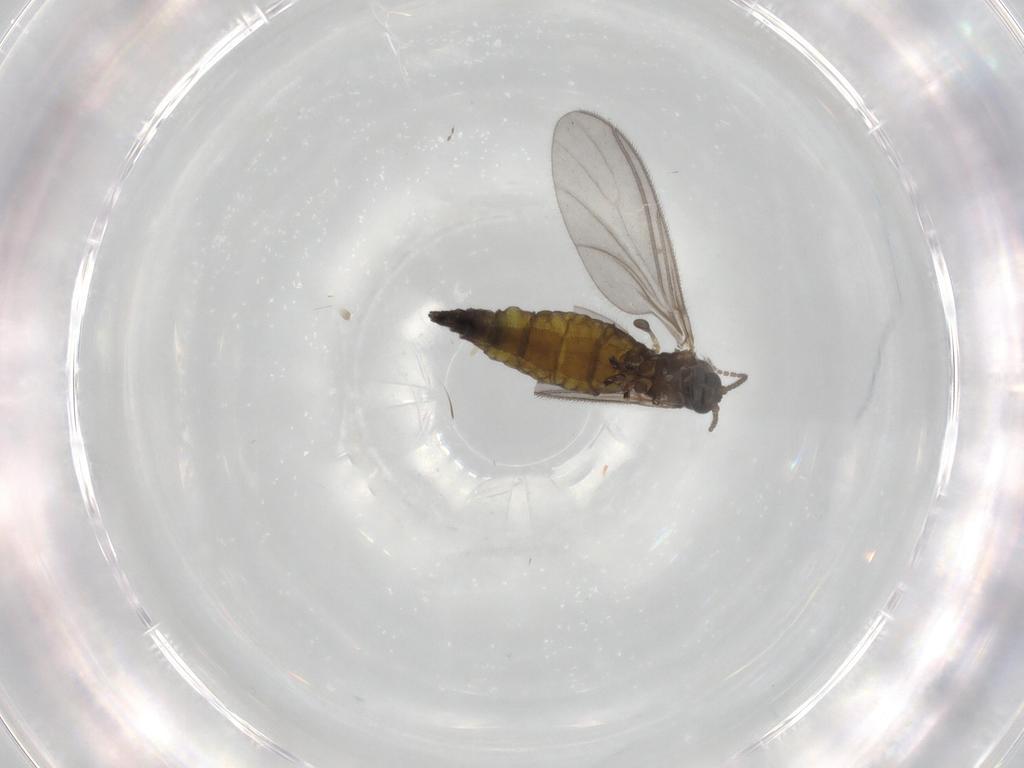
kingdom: Animalia
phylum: Arthropoda
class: Insecta
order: Diptera
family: Sciaridae
